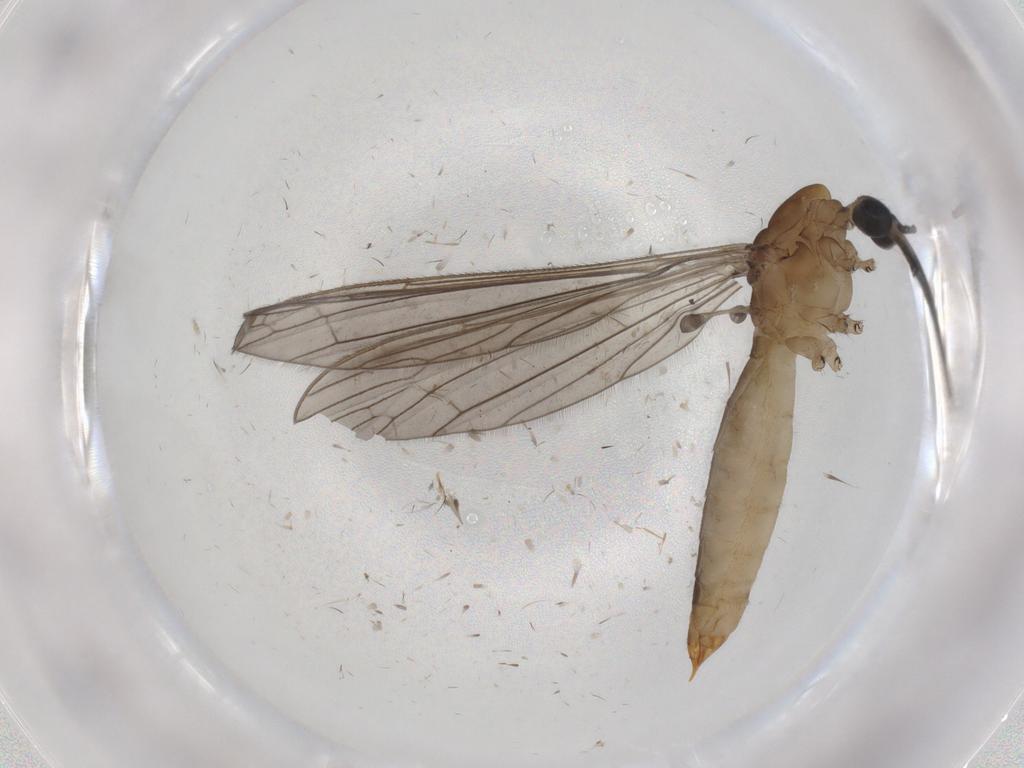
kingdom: Animalia
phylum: Arthropoda
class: Insecta
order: Diptera
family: Limoniidae
